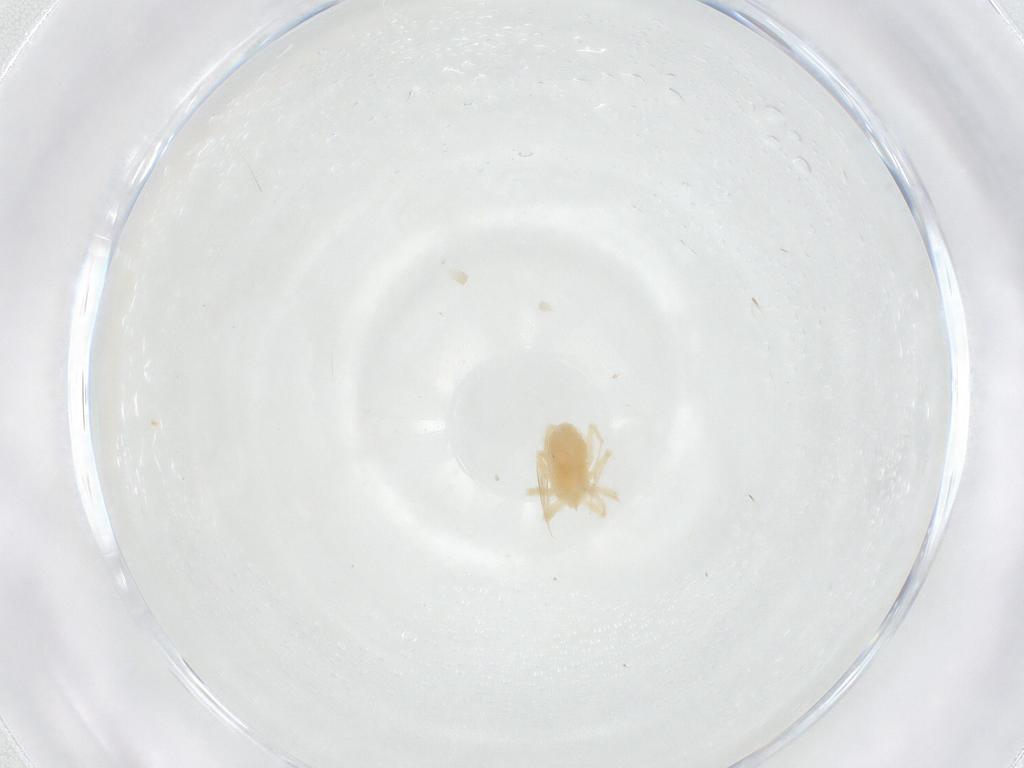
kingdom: Animalia
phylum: Arthropoda
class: Arachnida
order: Trombidiformes
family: Anystidae
